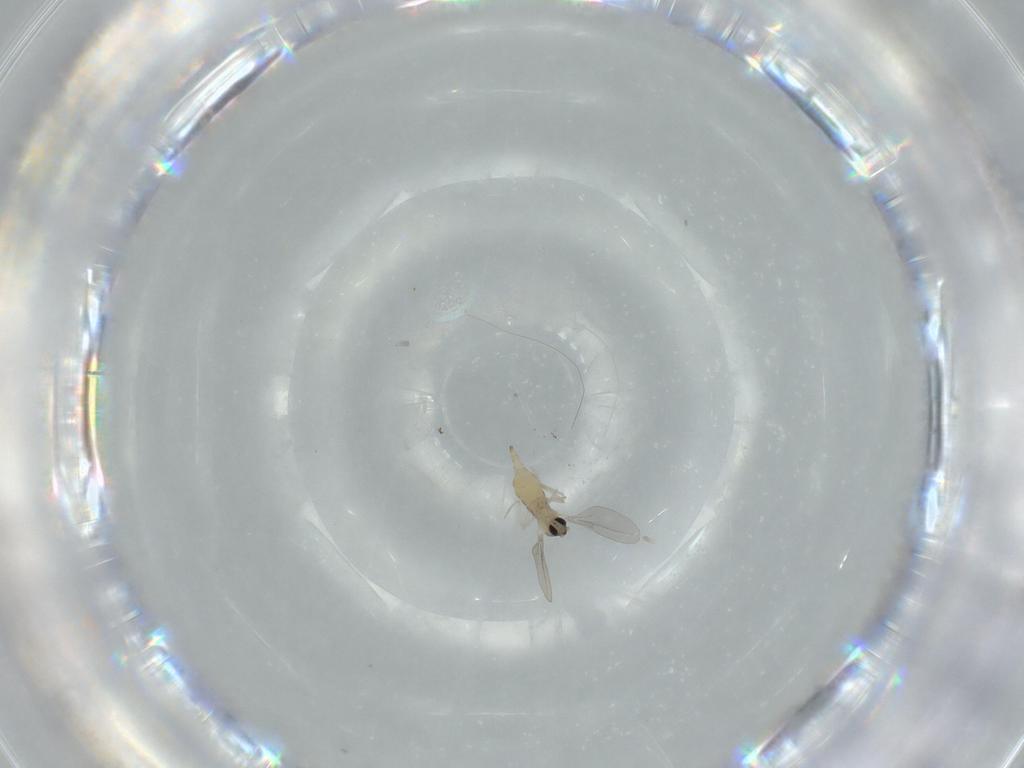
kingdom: Animalia
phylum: Arthropoda
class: Insecta
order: Diptera
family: Cecidomyiidae
